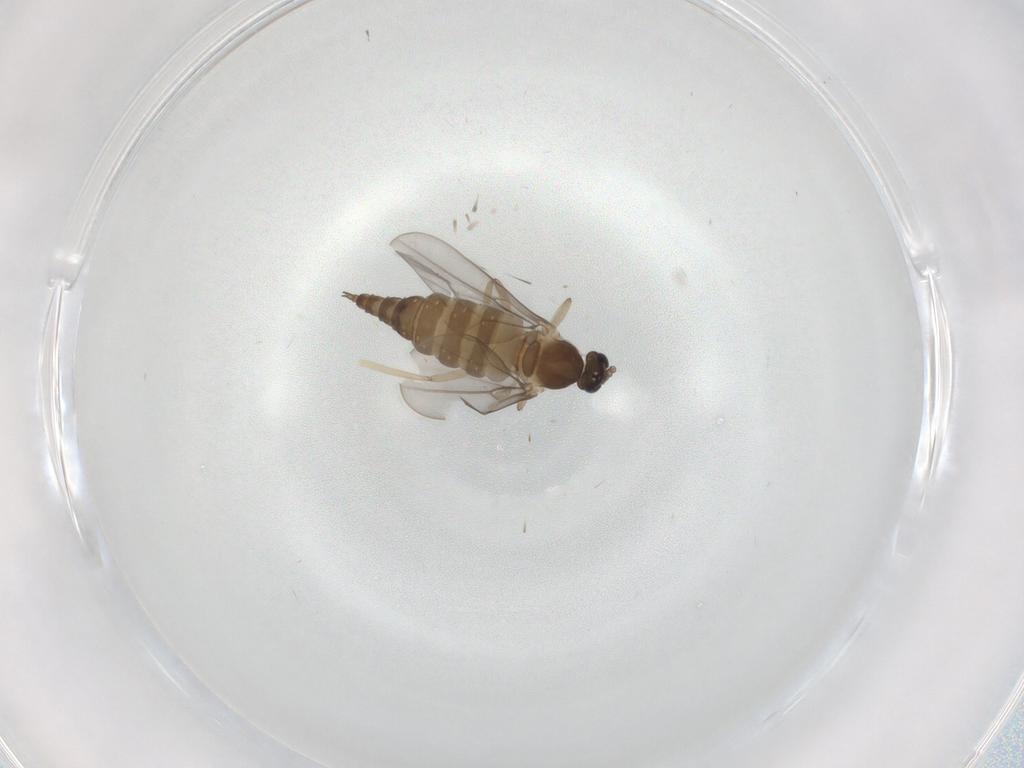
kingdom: Animalia
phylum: Arthropoda
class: Insecta
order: Diptera
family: Cecidomyiidae
